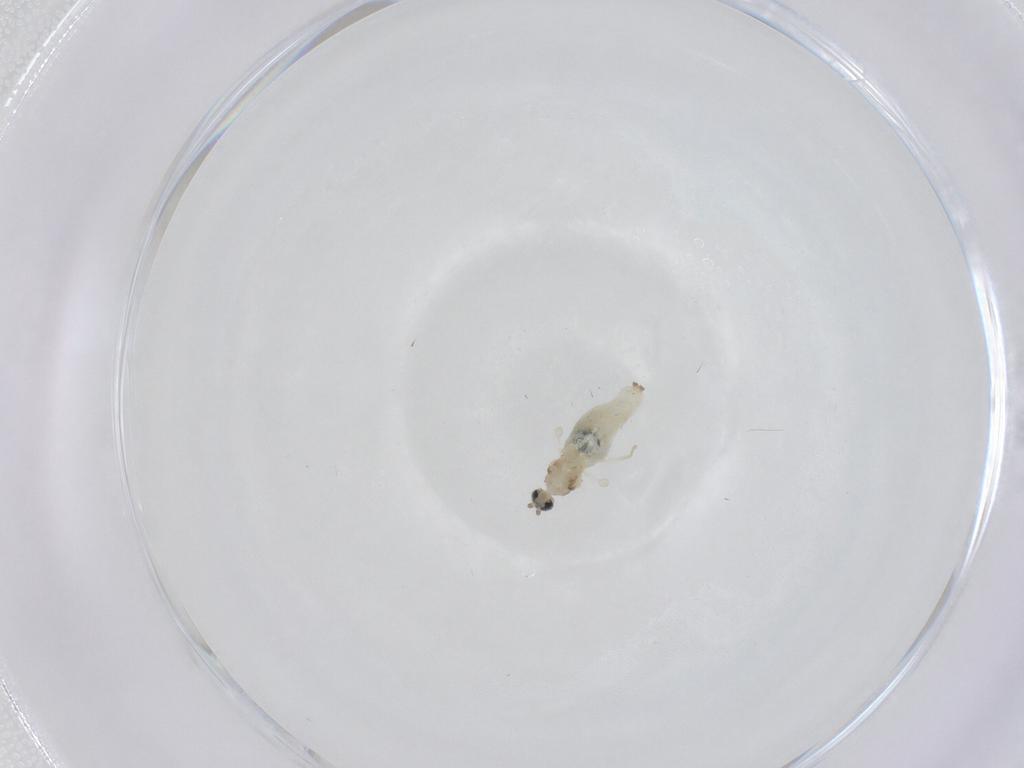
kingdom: Animalia
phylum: Arthropoda
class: Insecta
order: Diptera
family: Cecidomyiidae
